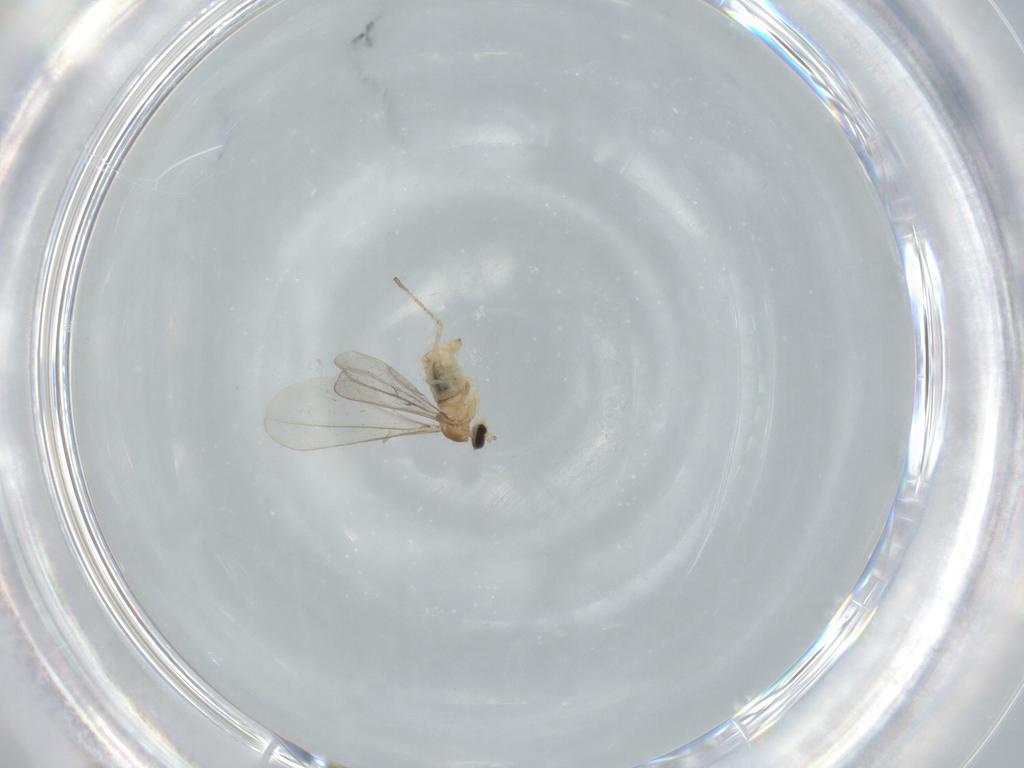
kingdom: Animalia
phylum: Arthropoda
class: Insecta
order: Diptera
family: Cecidomyiidae
